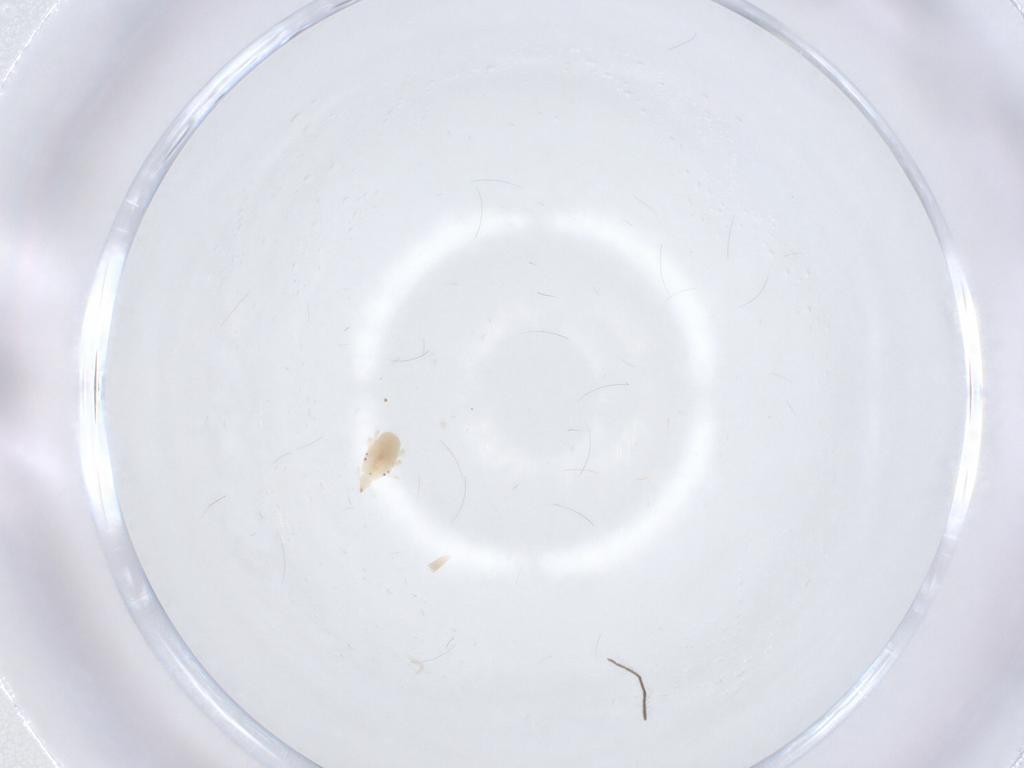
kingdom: Animalia
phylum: Arthropoda
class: Arachnida
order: Trombidiformes
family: Bdellidae
